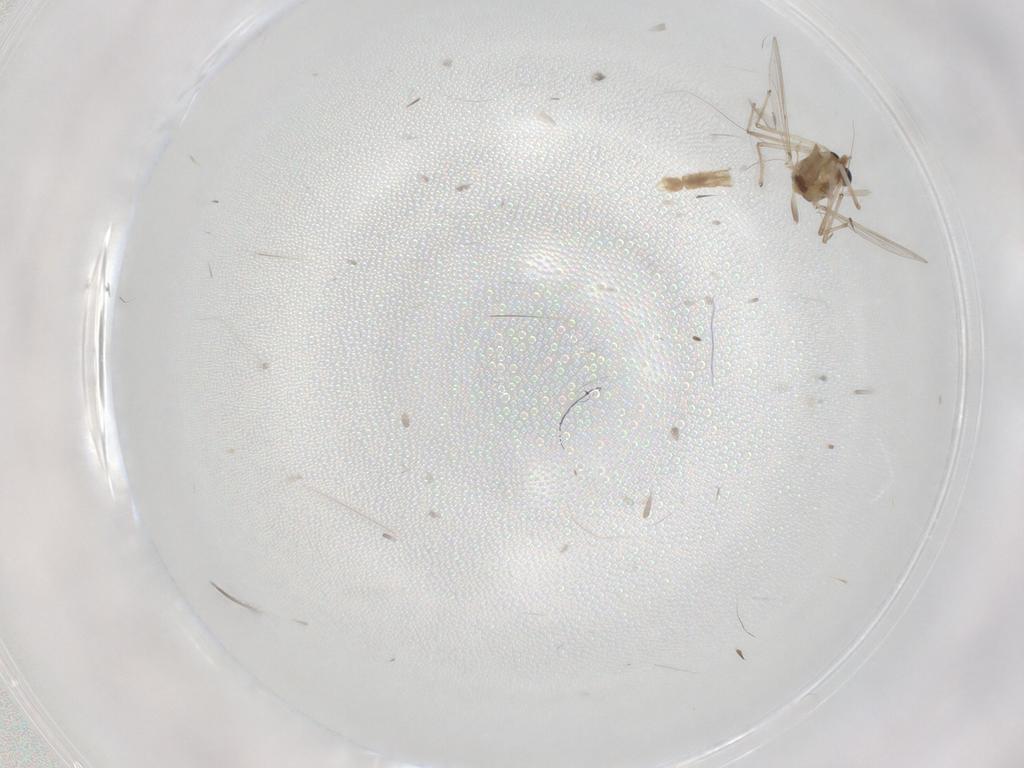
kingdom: Animalia
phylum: Arthropoda
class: Insecta
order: Diptera
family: Chironomidae
